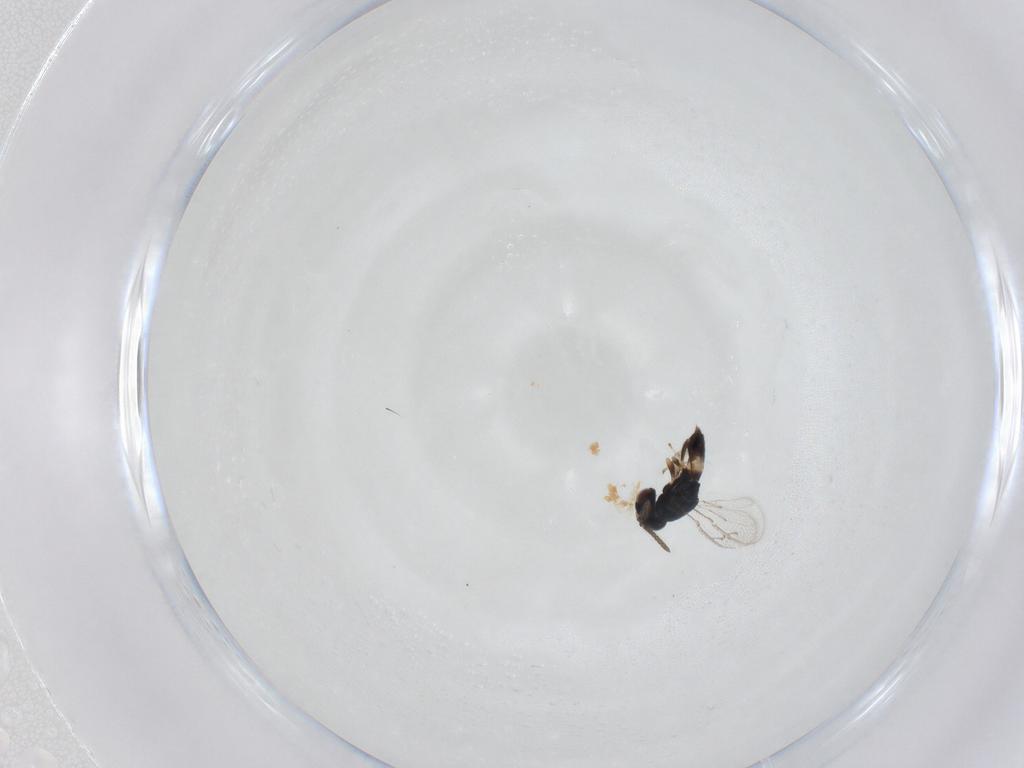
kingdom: Animalia
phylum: Arthropoda
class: Insecta
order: Hymenoptera
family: Pteromalidae
